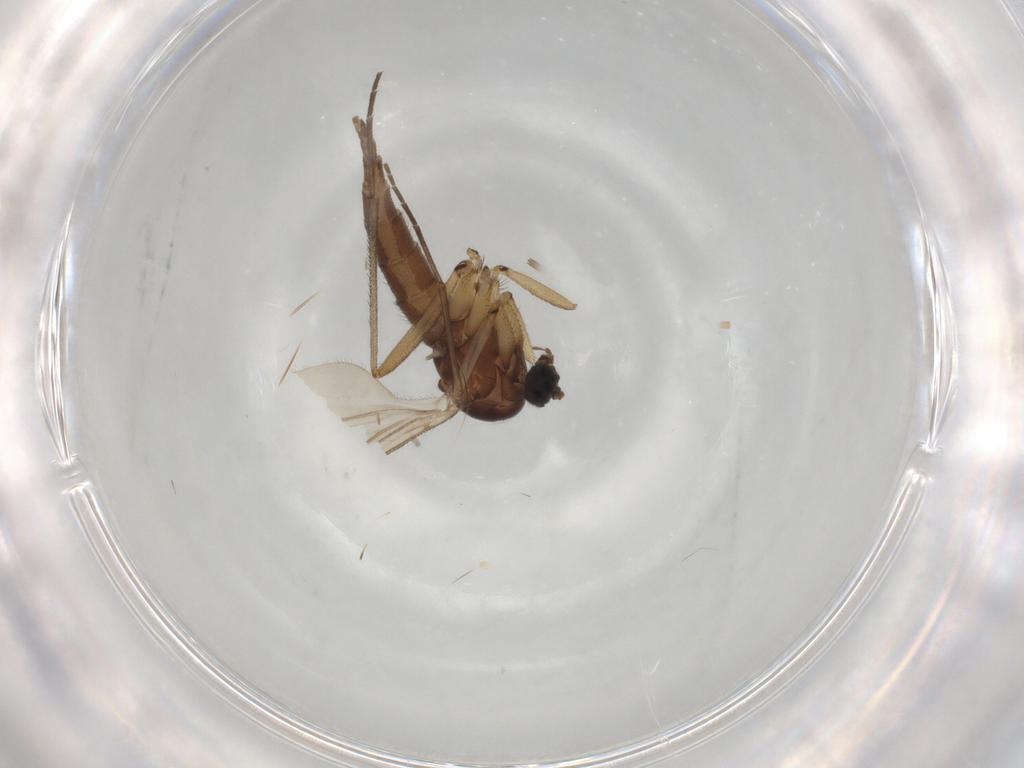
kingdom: Animalia
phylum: Arthropoda
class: Insecta
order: Diptera
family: Sciaridae
